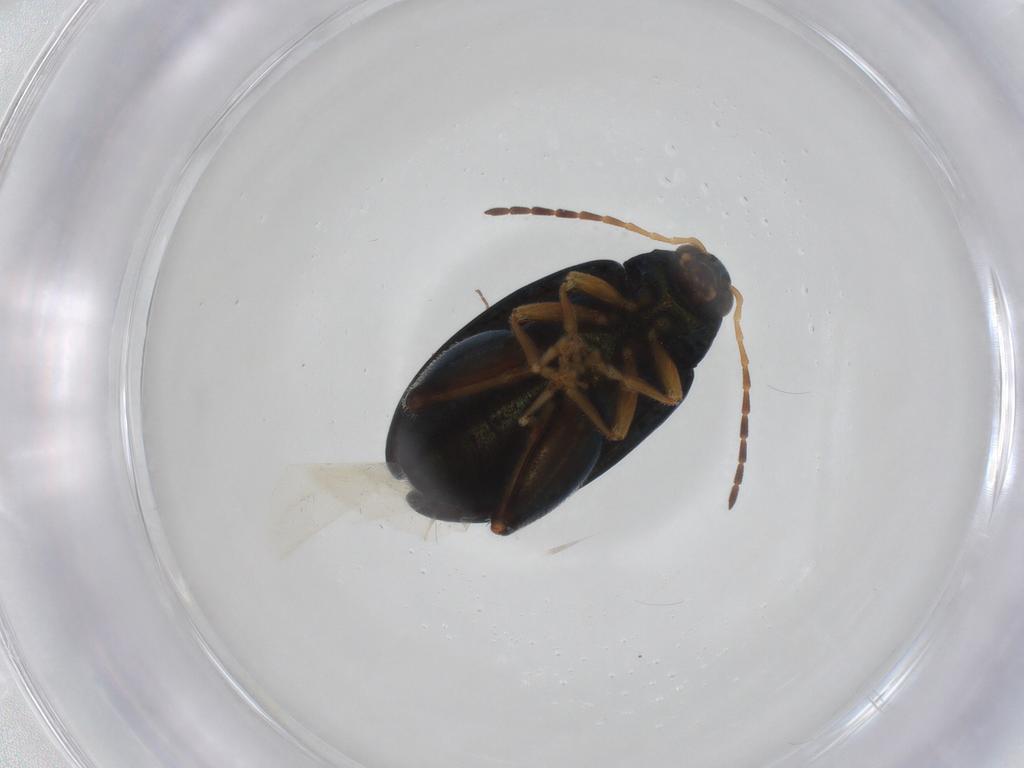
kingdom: Animalia
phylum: Arthropoda
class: Insecta
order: Coleoptera
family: Chrysomelidae
